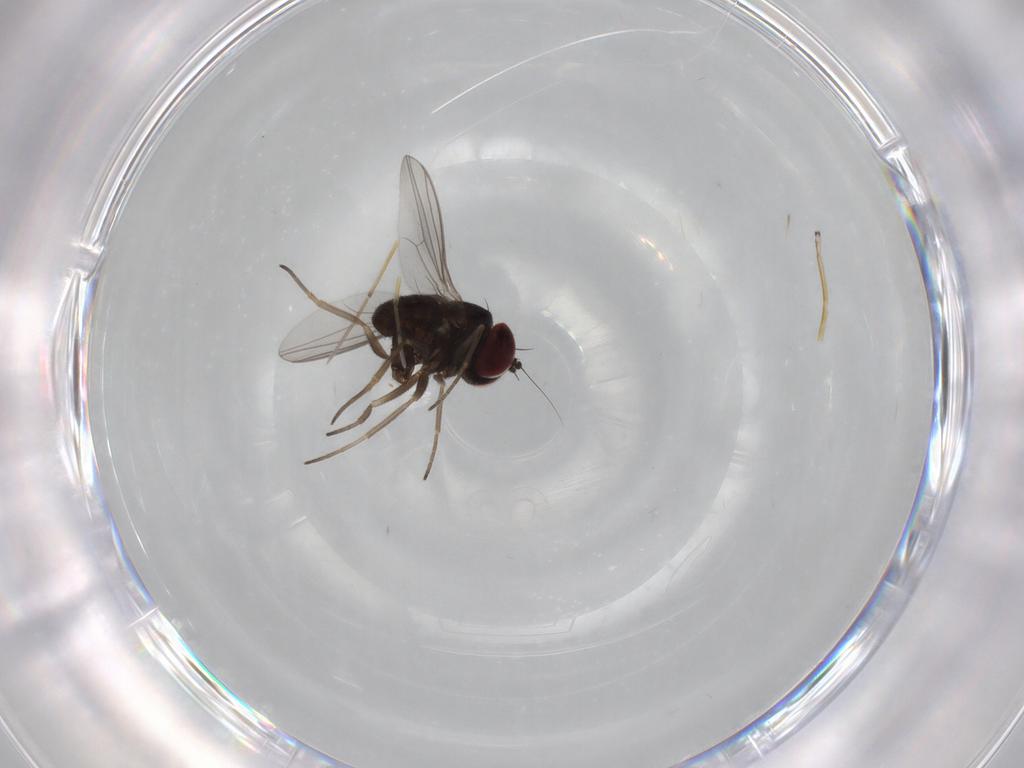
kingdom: Animalia
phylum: Arthropoda
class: Insecta
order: Diptera
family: Dolichopodidae
